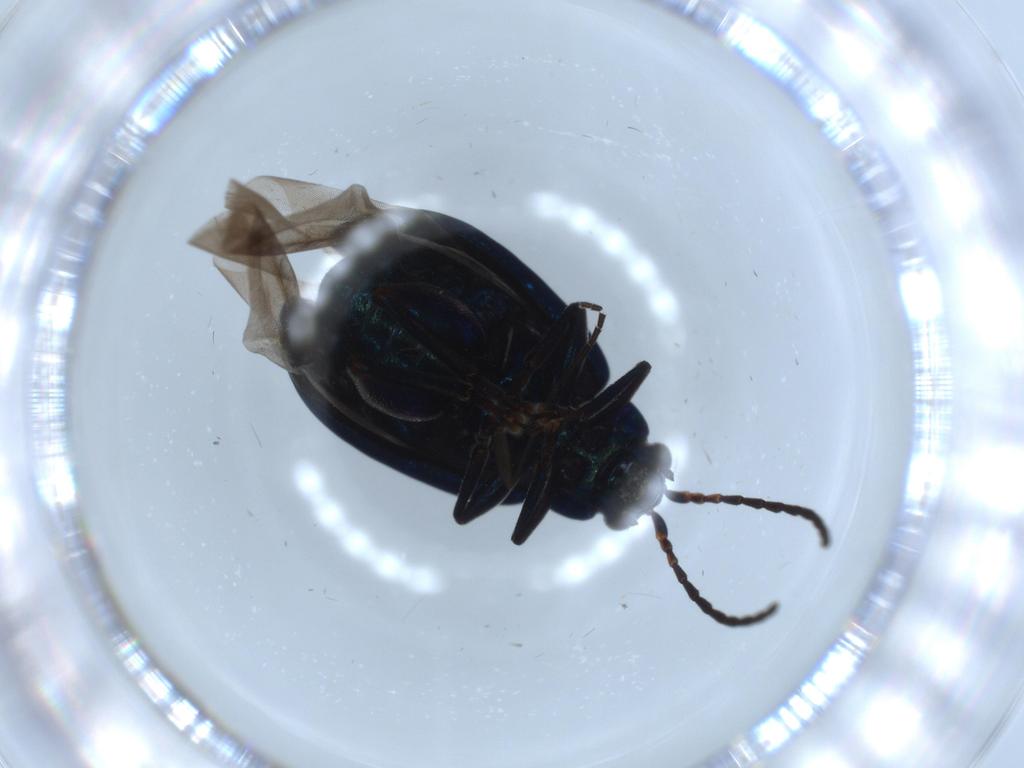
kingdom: Animalia
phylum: Arthropoda
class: Insecta
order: Coleoptera
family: Chrysomelidae
